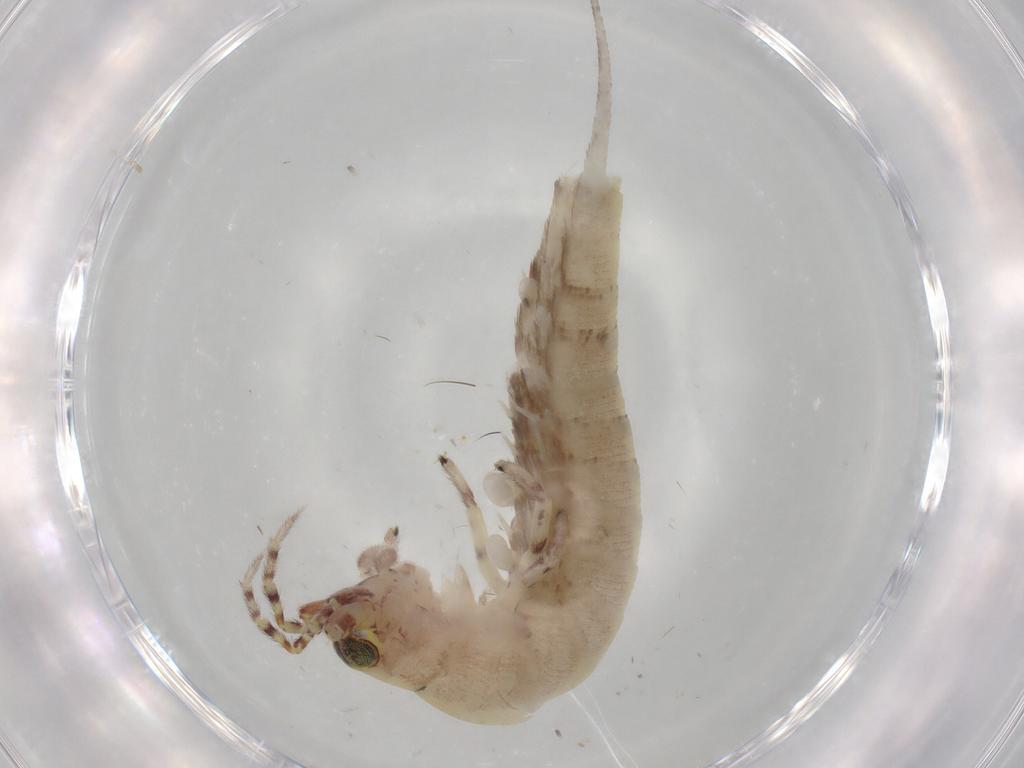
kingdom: Animalia
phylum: Arthropoda
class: Insecta
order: Archaeognatha
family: Machilidae
